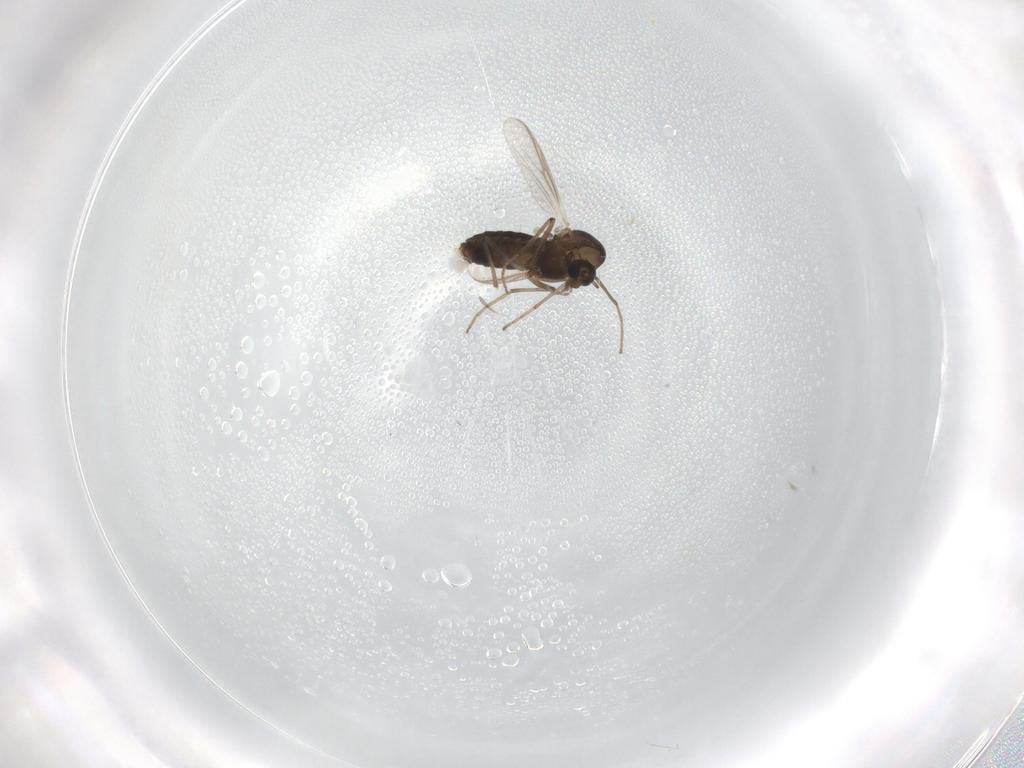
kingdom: Animalia
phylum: Arthropoda
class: Insecta
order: Diptera
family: Chironomidae
